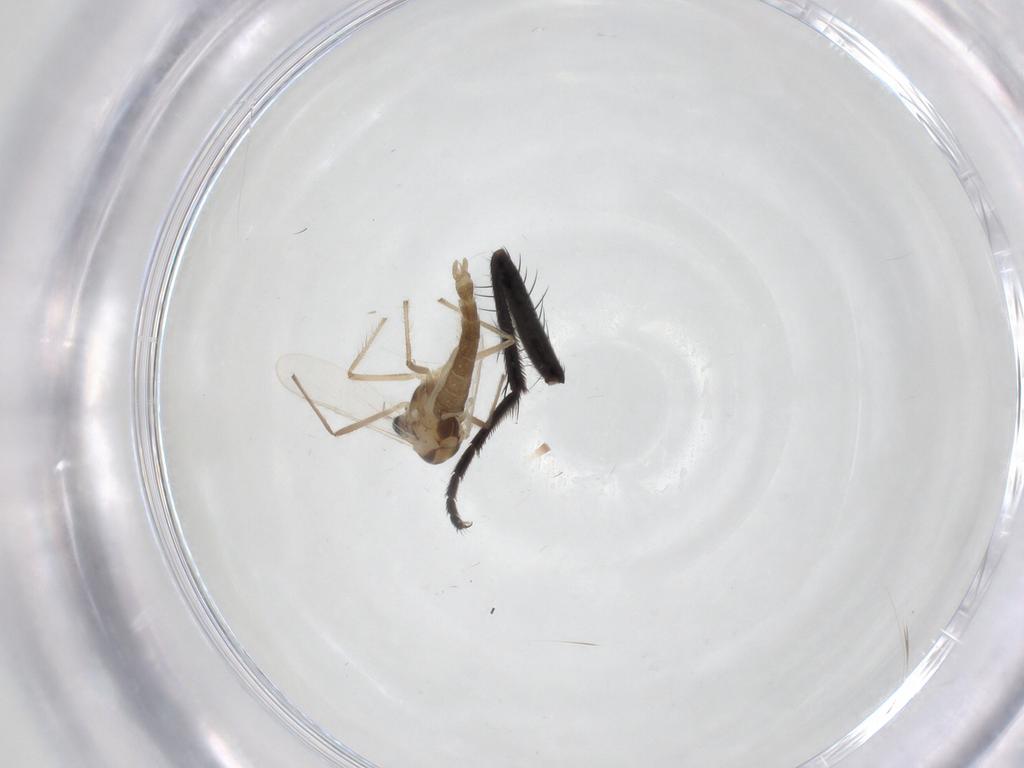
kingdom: Animalia
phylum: Arthropoda
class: Insecta
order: Diptera
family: Chironomidae
